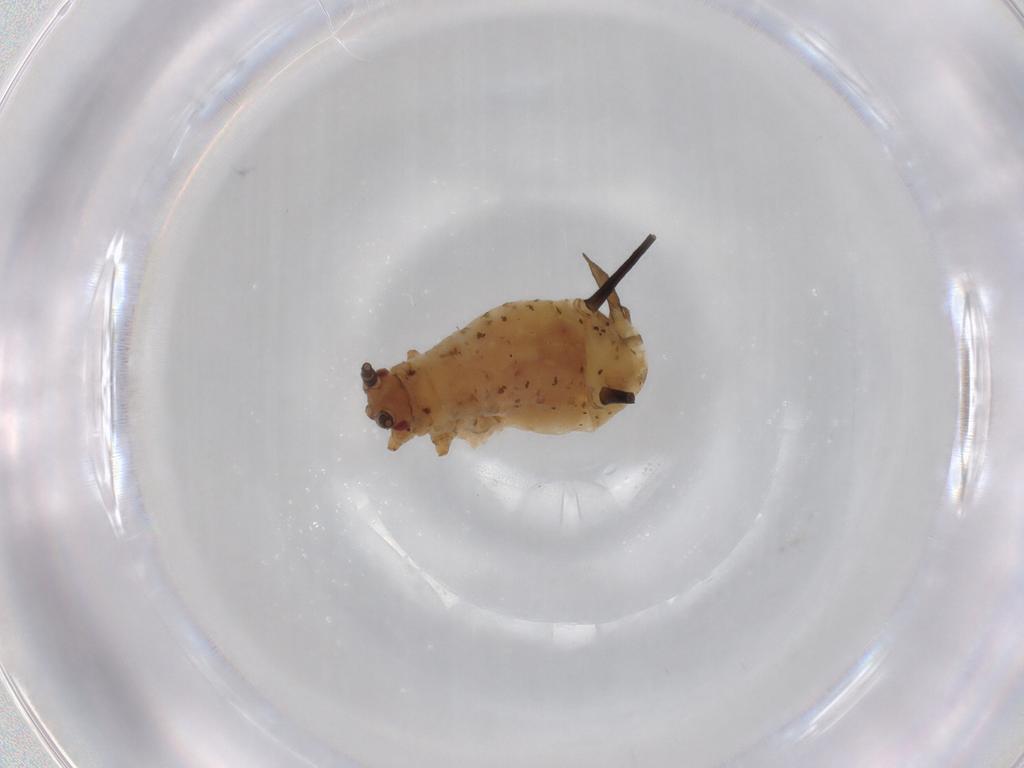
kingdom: Animalia
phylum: Arthropoda
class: Insecta
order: Hemiptera
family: Aphididae
